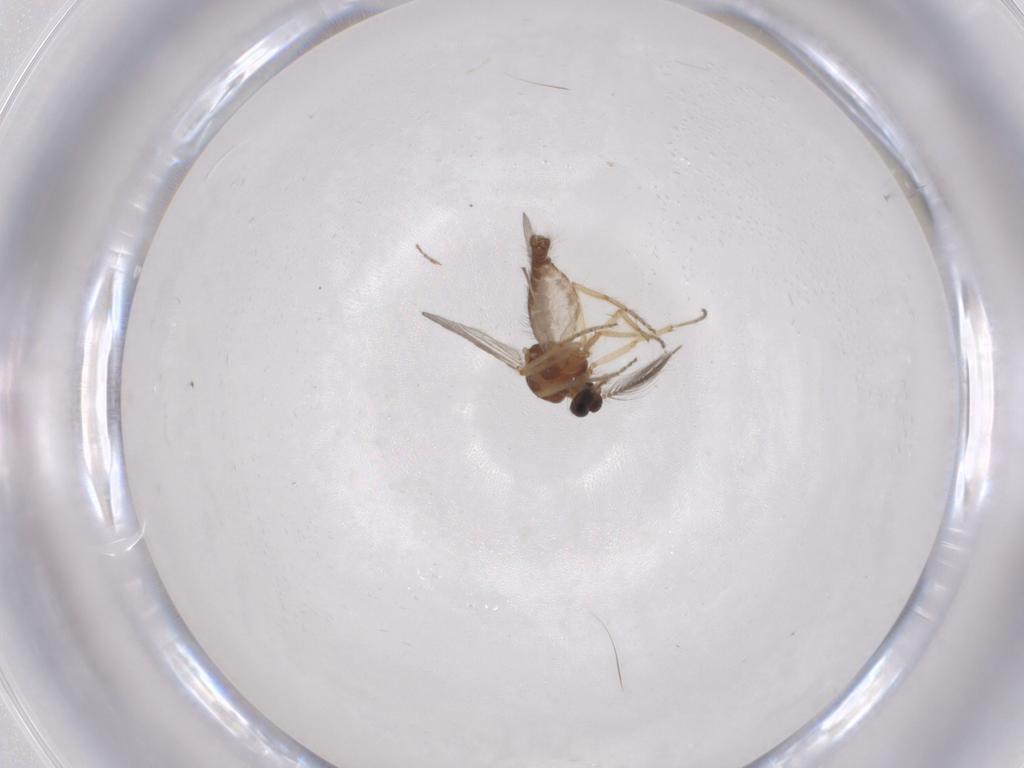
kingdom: Animalia
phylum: Arthropoda
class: Insecta
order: Diptera
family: Ceratopogonidae
